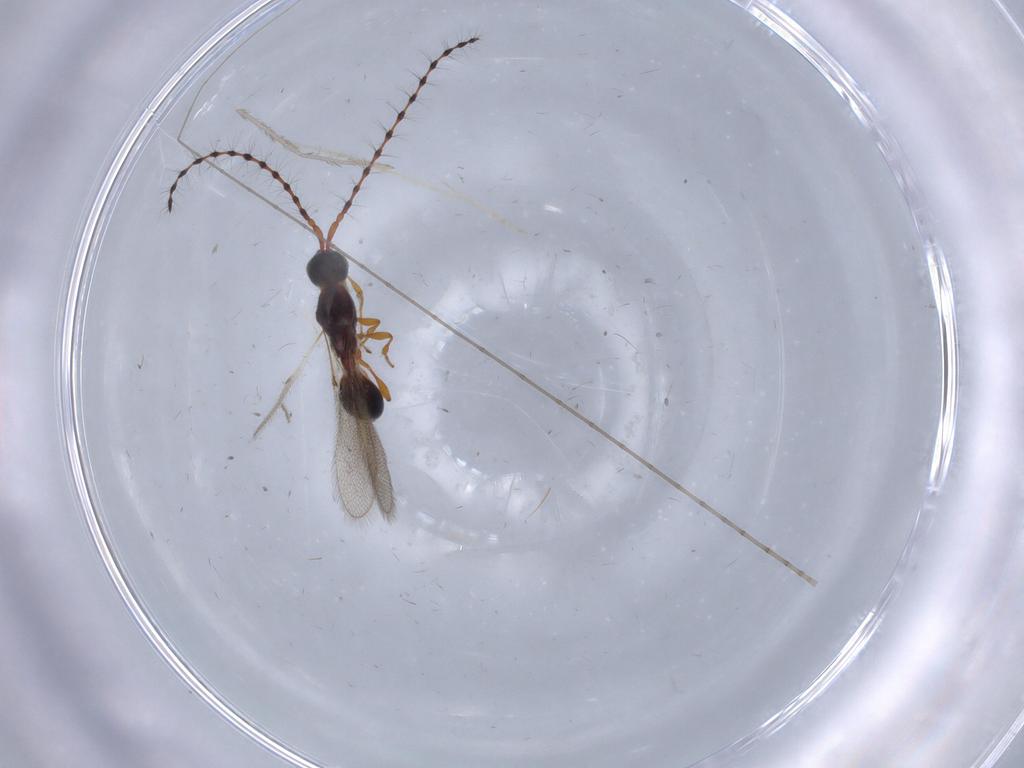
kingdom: Animalia
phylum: Arthropoda
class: Insecta
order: Hymenoptera
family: Diapriidae
